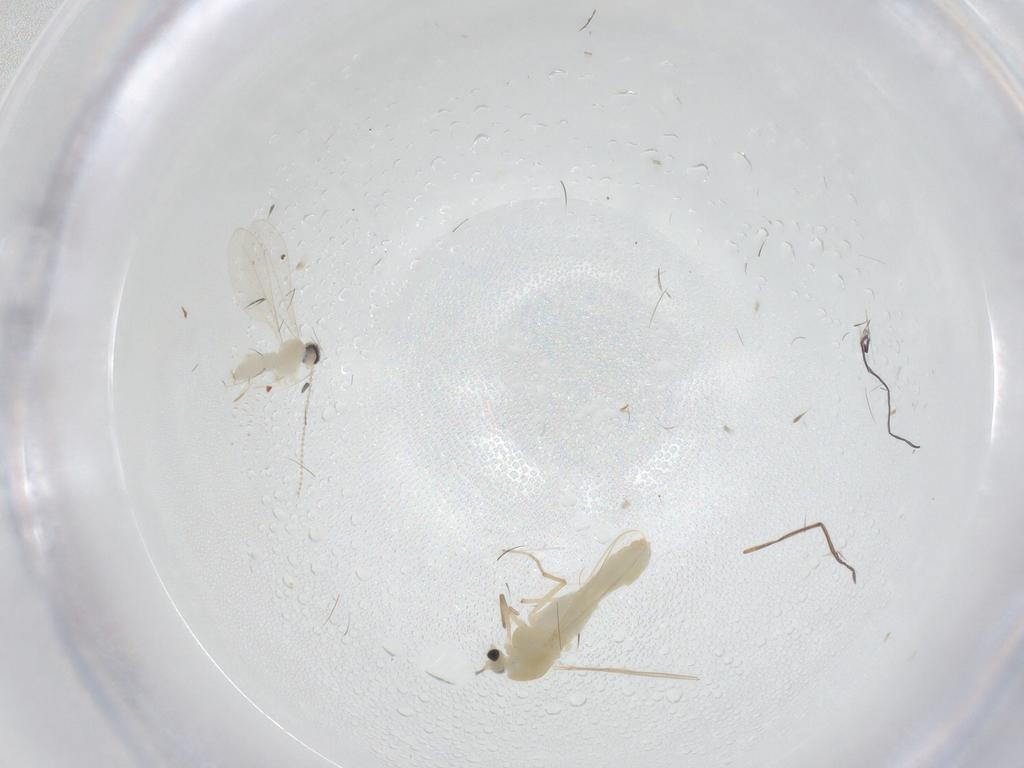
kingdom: Animalia
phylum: Arthropoda
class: Insecta
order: Diptera
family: Chironomidae
